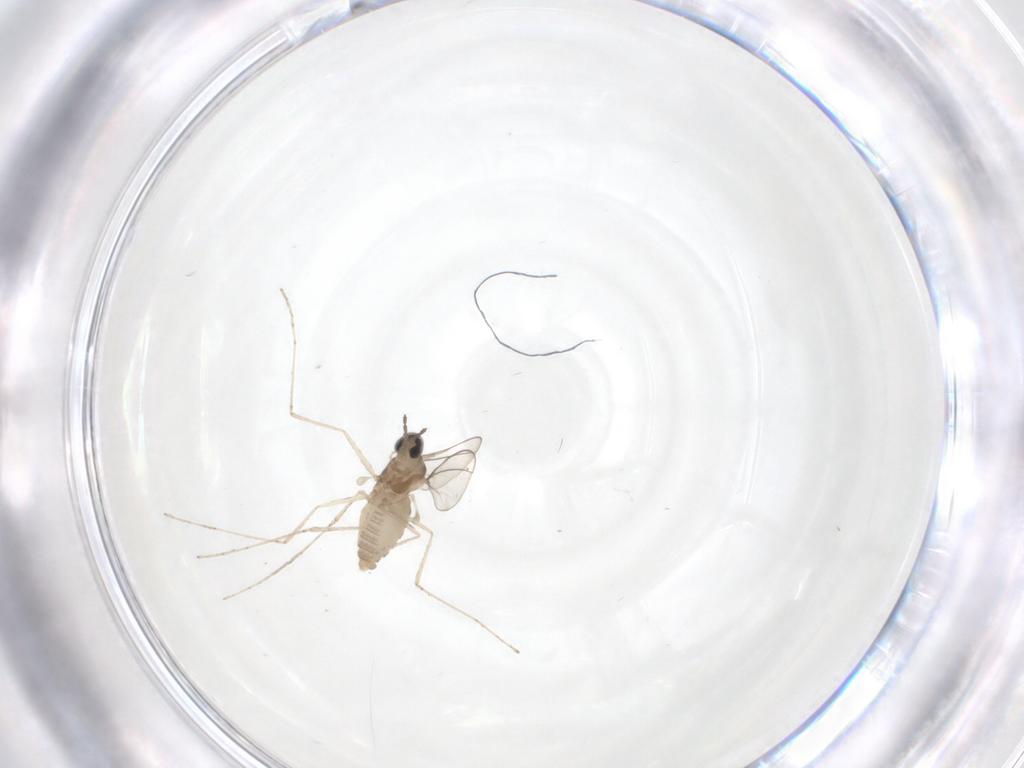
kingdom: Animalia
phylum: Arthropoda
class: Insecta
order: Diptera
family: Cecidomyiidae
